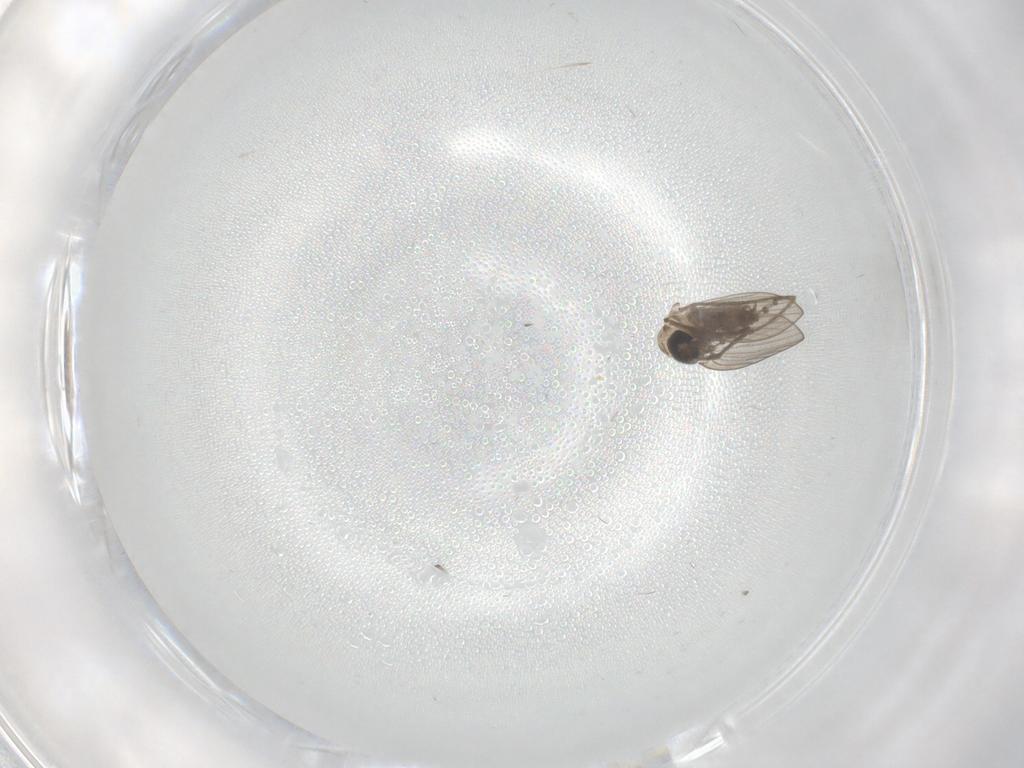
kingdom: Animalia
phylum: Arthropoda
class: Insecta
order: Diptera
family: Psychodidae
